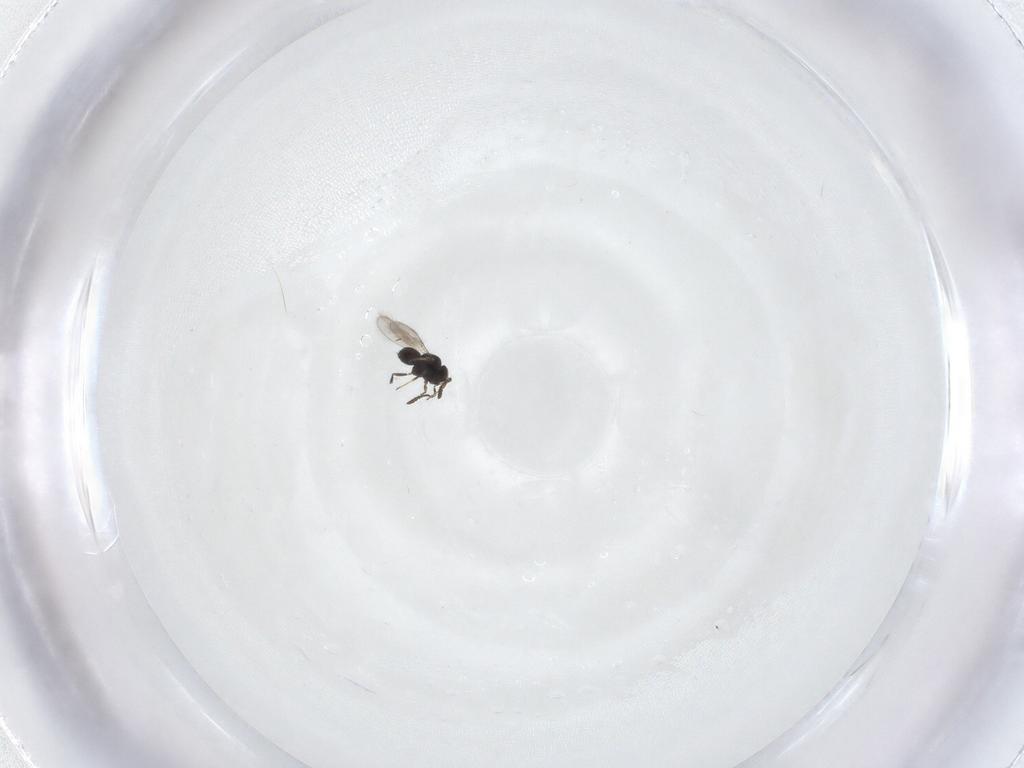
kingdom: Animalia
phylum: Arthropoda
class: Insecta
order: Hymenoptera
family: Scelionidae
